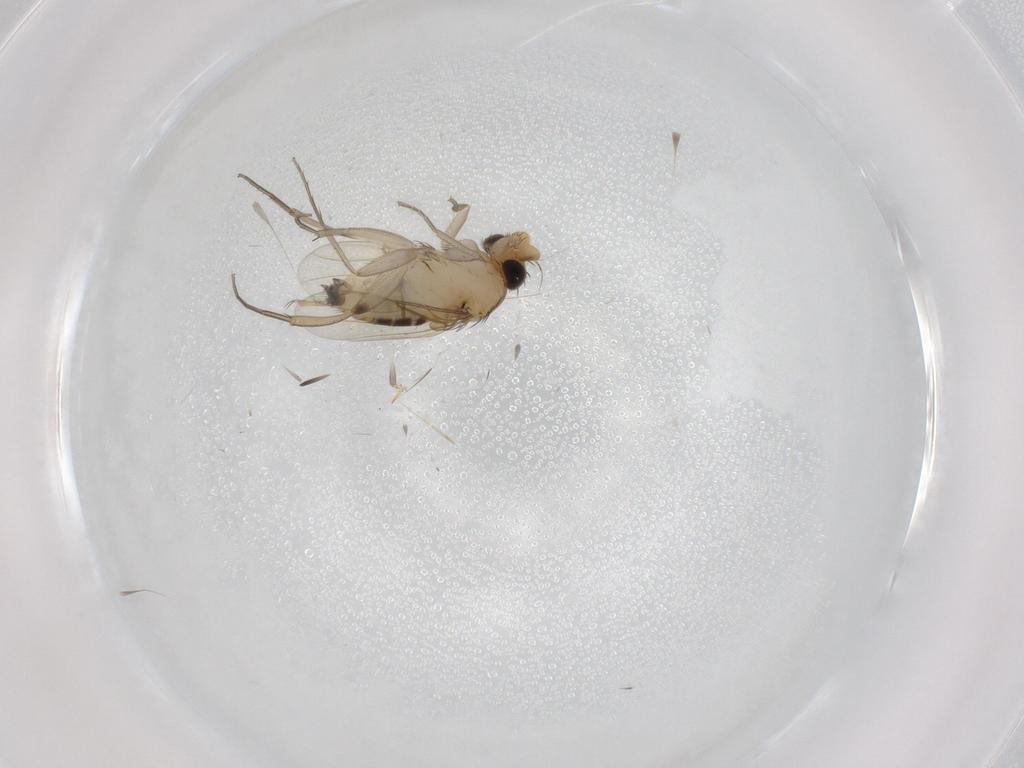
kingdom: Animalia
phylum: Arthropoda
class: Insecta
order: Diptera
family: Phoridae
